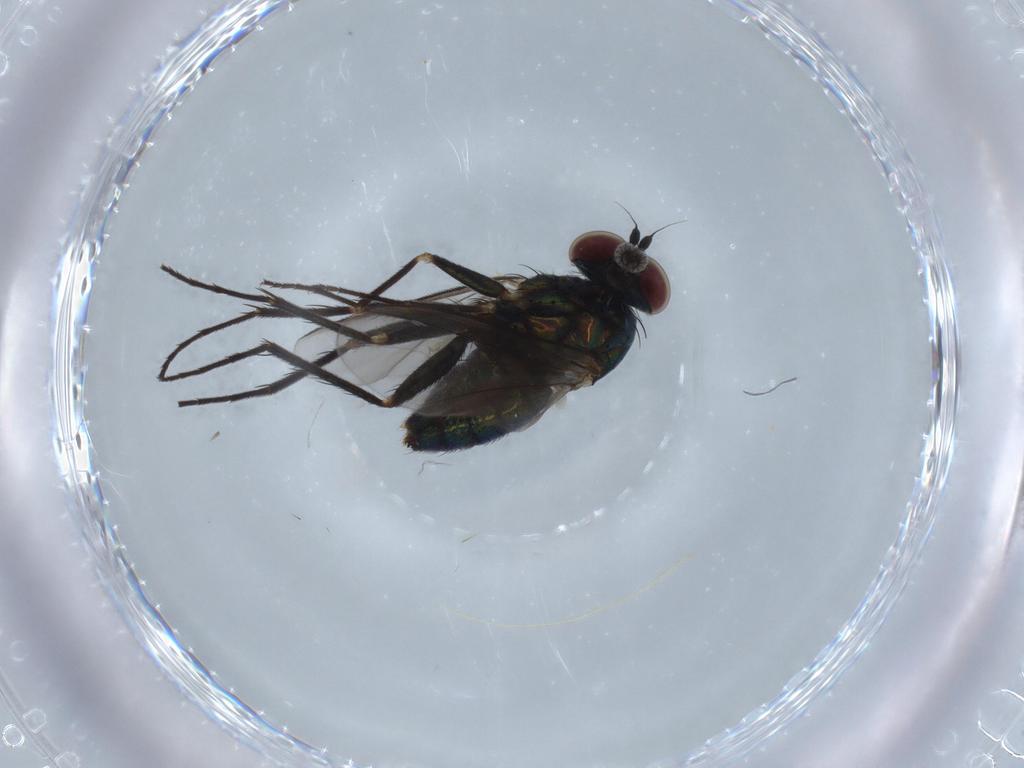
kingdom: Animalia
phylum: Arthropoda
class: Insecta
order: Diptera
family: Dolichopodidae
